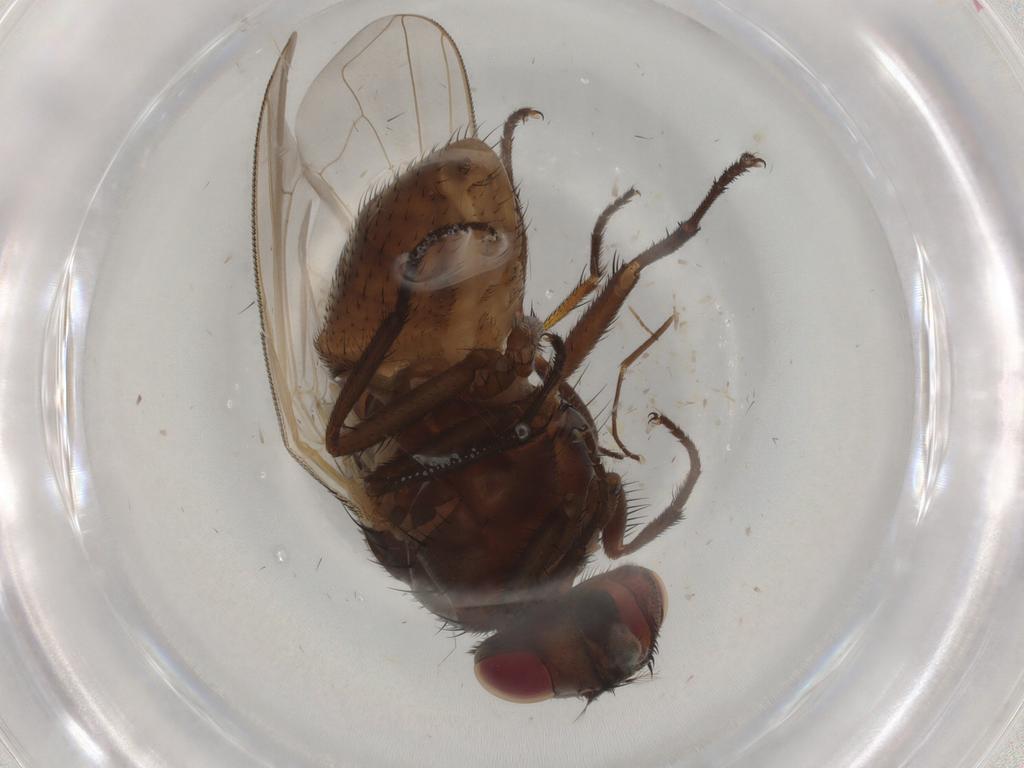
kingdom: Animalia
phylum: Arthropoda
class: Insecta
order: Diptera
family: Muscidae
